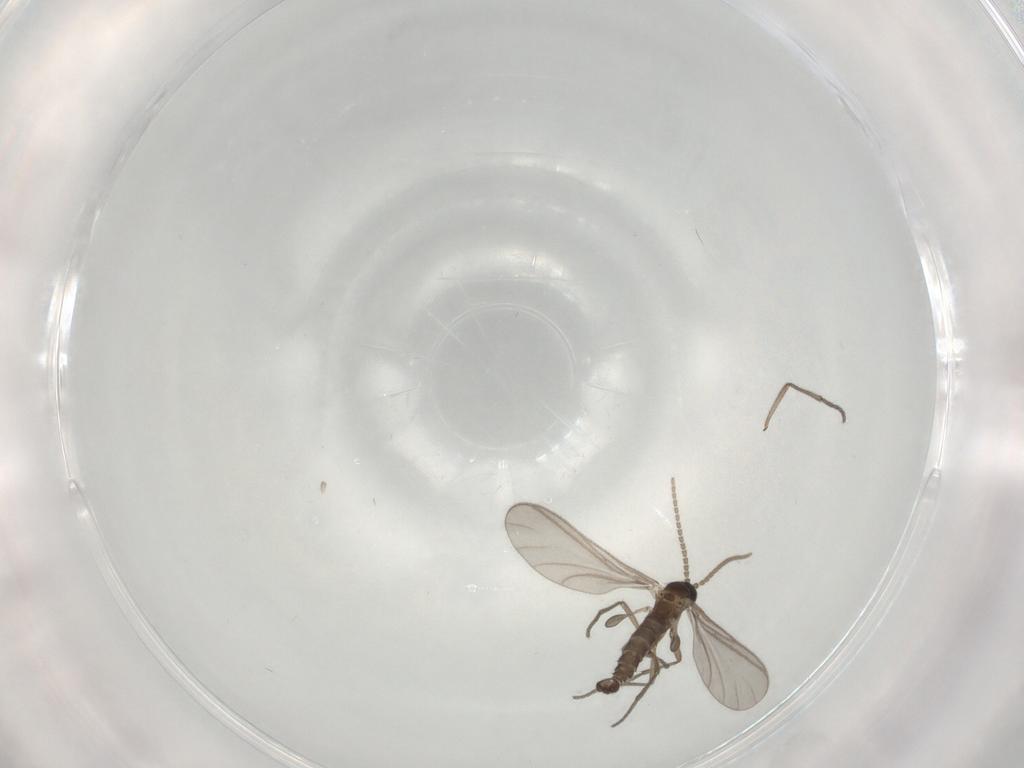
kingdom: Animalia
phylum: Arthropoda
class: Insecta
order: Diptera
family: Sciaridae
